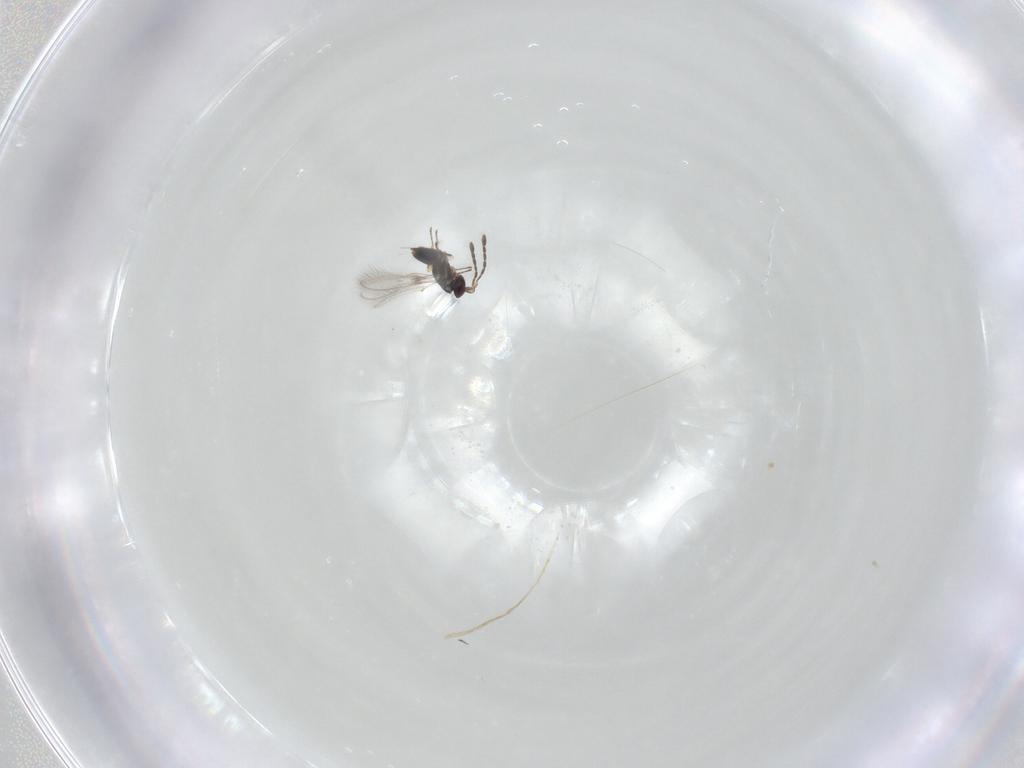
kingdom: Animalia
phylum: Arthropoda
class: Insecta
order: Hymenoptera
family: Mymaridae
